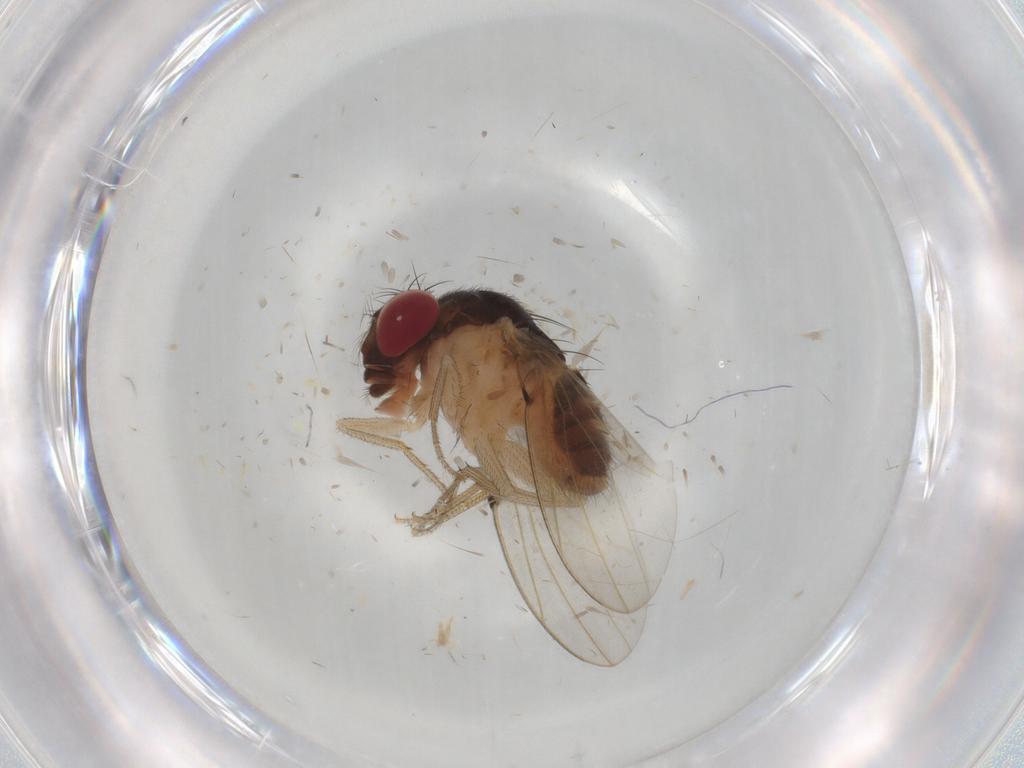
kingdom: Animalia
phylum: Arthropoda
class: Insecta
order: Diptera
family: Drosophilidae
